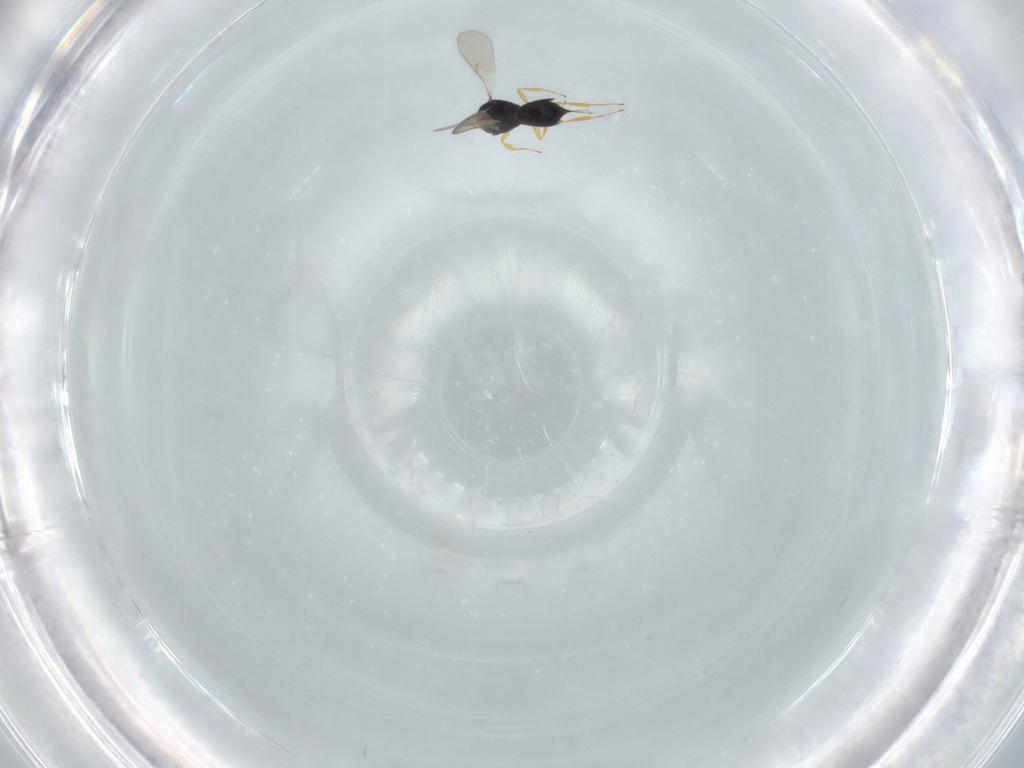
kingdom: Animalia
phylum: Arthropoda
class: Insecta
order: Hymenoptera
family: Scelionidae
